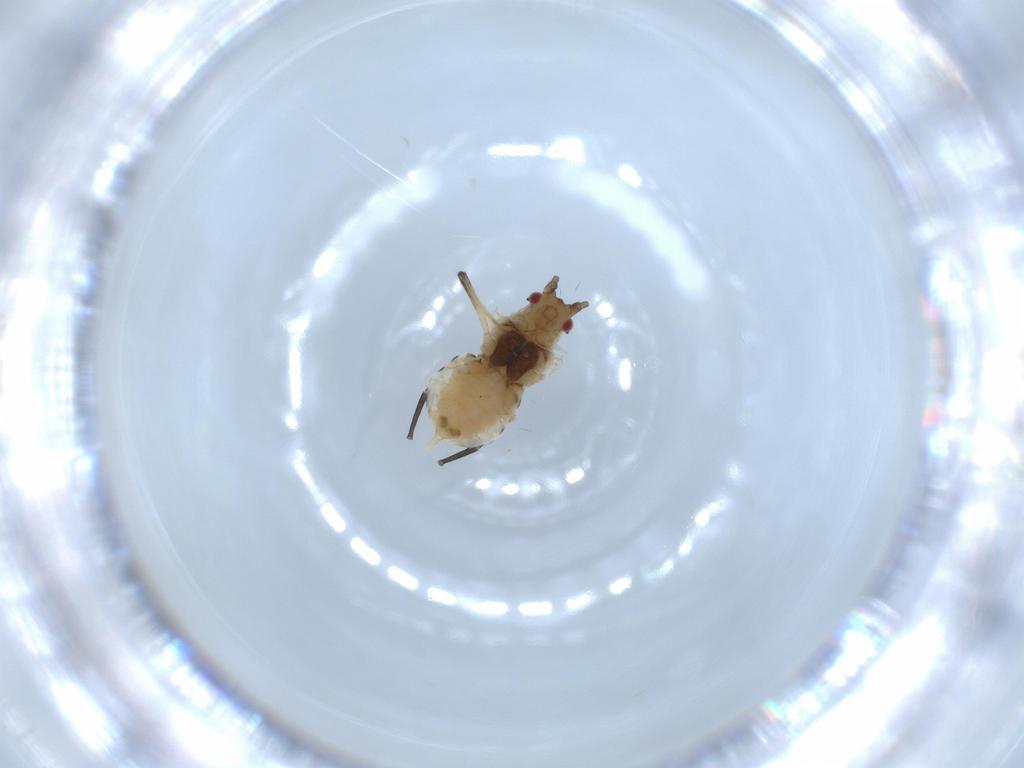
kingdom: Animalia
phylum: Arthropoda
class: Insecta
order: Hemiptera
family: Aphididae
